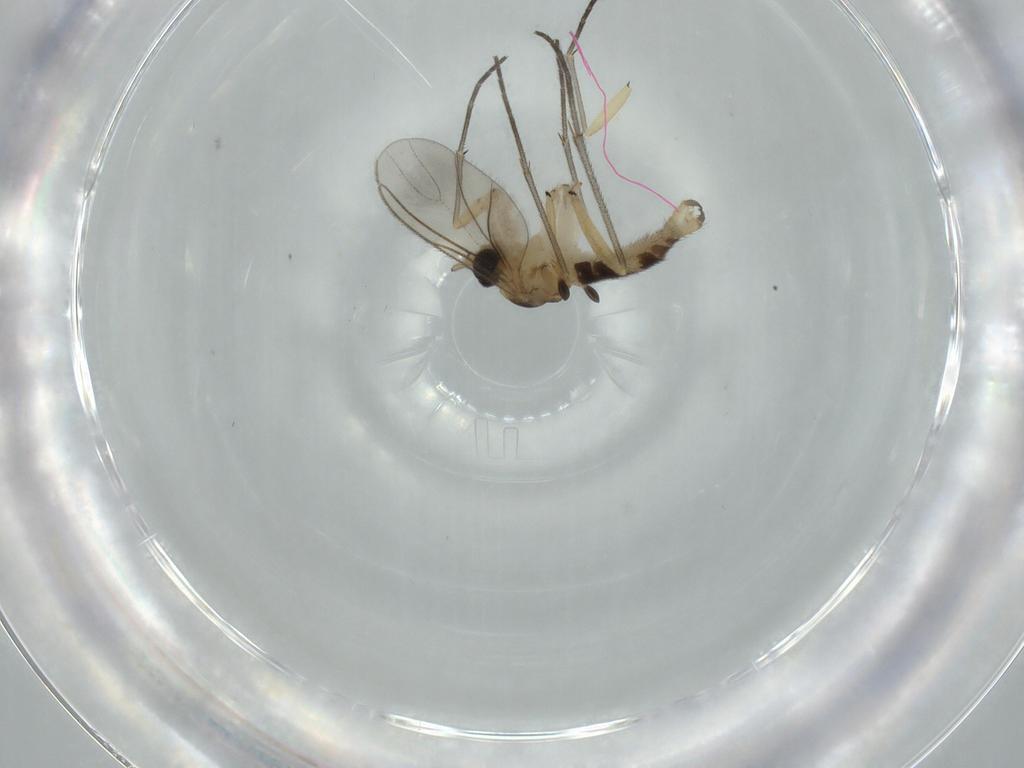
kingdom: Animalia
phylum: Arthropoda
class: Insecta
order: Diptera
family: Sciaridae
